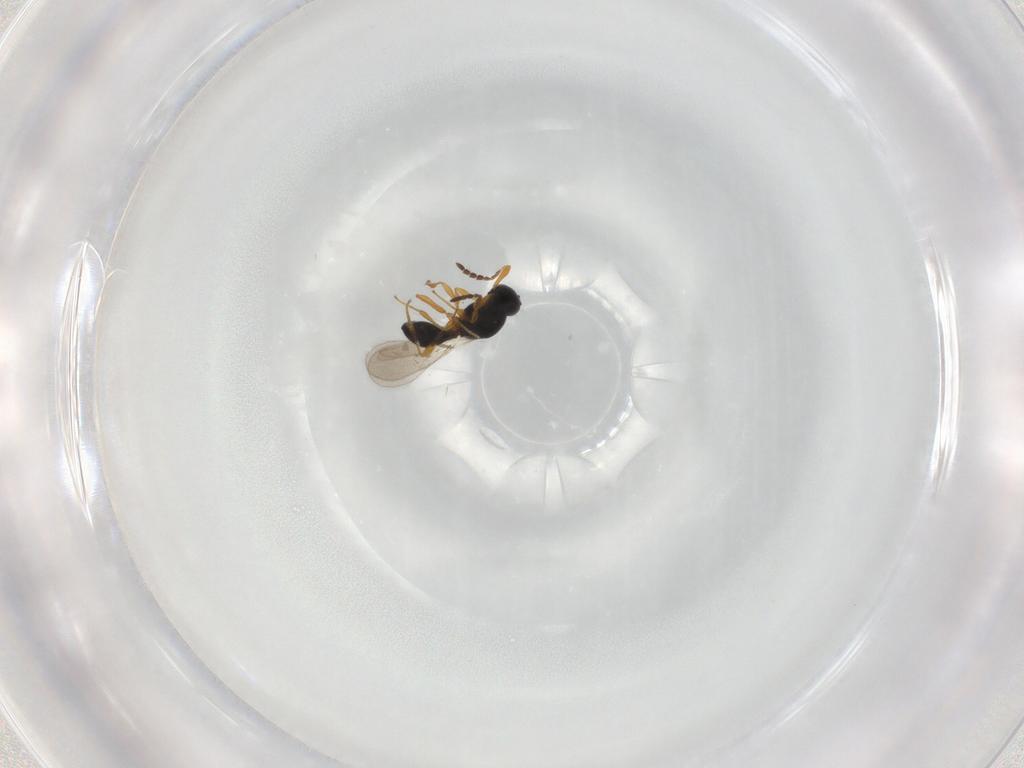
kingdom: Animalia
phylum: Arthropoda
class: Insecta
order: Hymenoptera
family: Platygastridae
